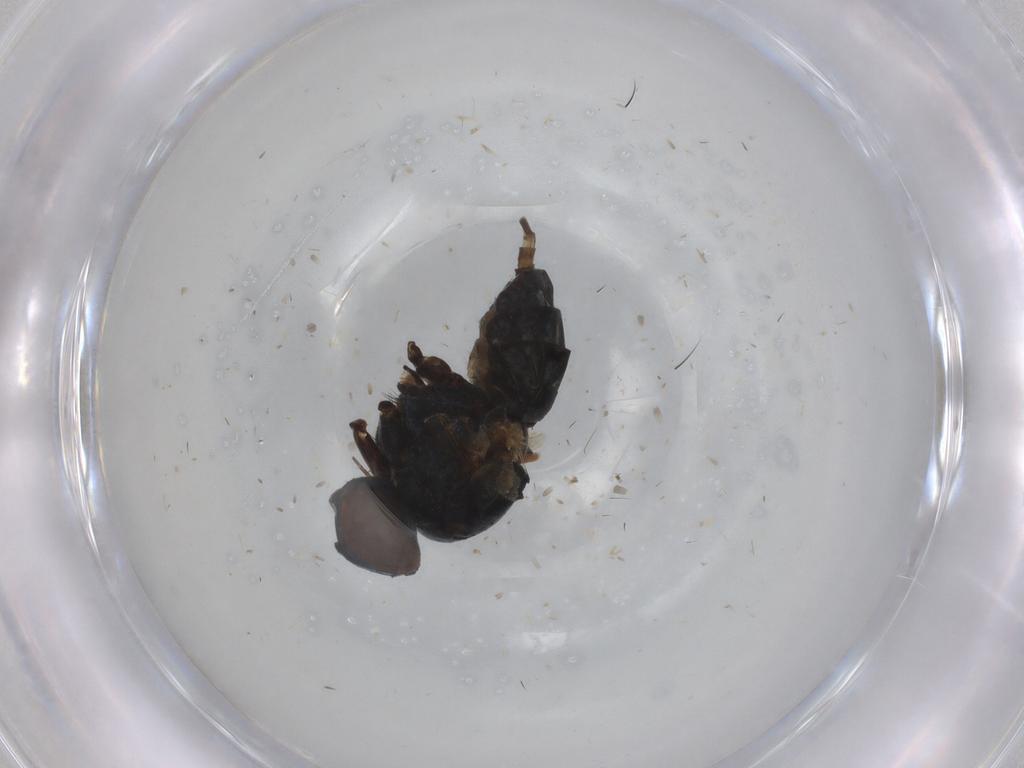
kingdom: Animalia
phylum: Arthropoda
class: Insecta
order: Diptera
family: Muscidae
